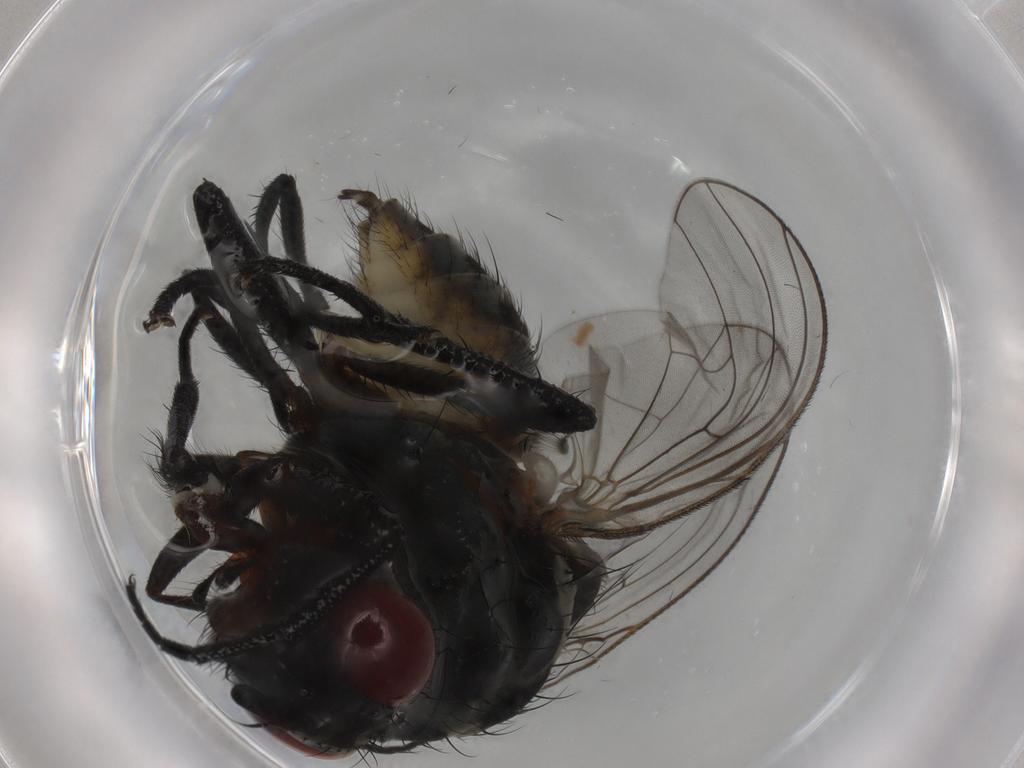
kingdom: Animalia
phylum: Arthropoda
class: Insecta
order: Diptera
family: Anthomyiidae
